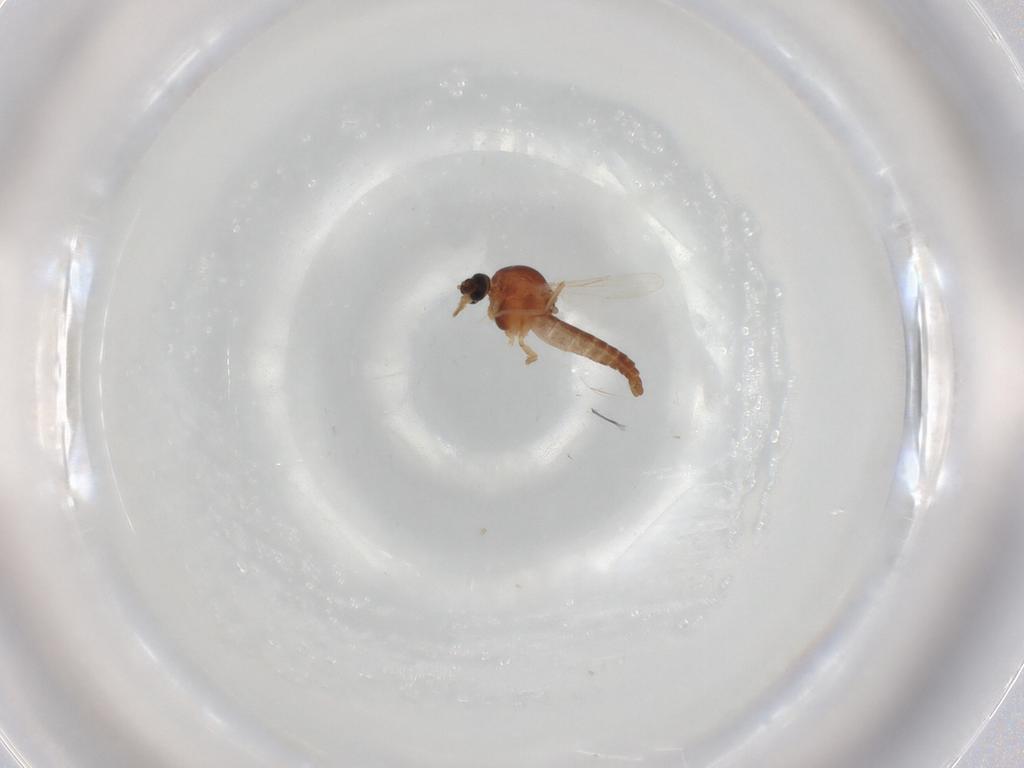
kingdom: Animalia
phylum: Arthropoda
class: Insecta
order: Diptera
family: Ceratopogonidae
